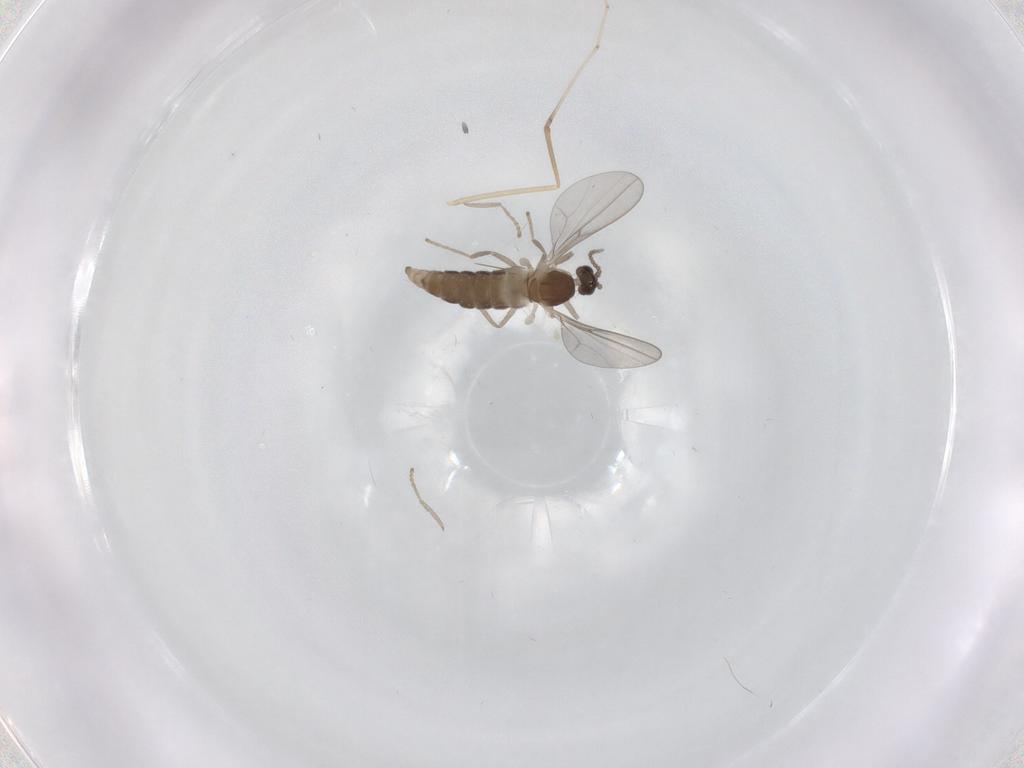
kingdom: Animalia
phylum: Arthropoda
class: Insecta
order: Diptera
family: Cecidomyiidae
